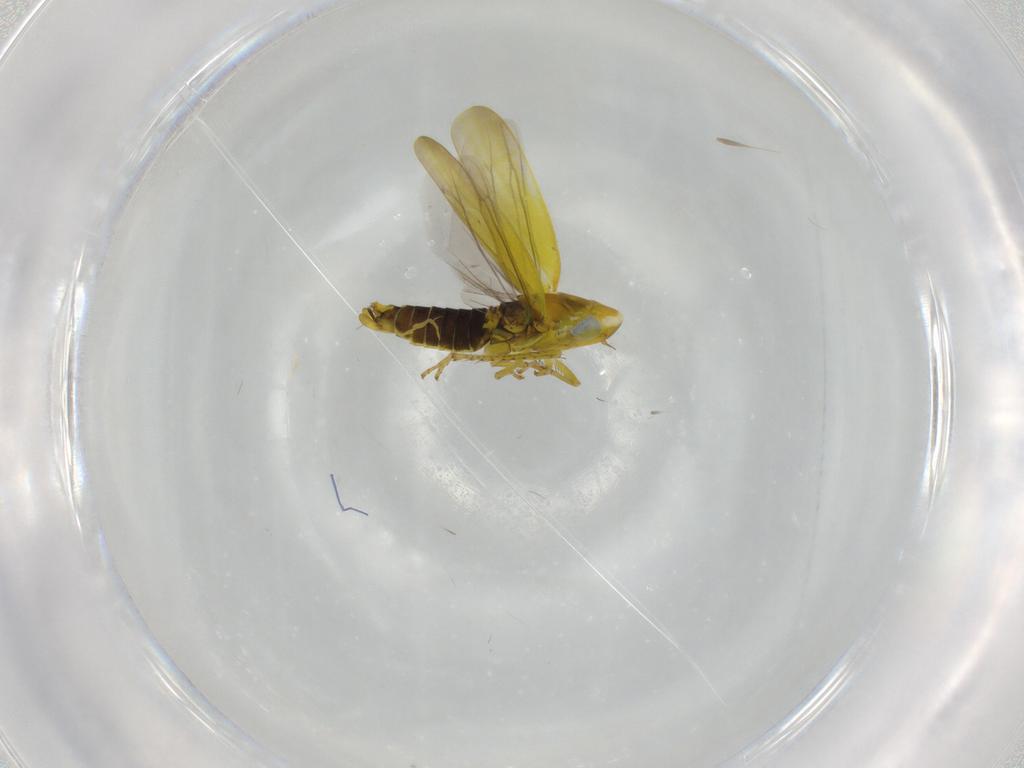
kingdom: Animalia
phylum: Arthropoda
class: Insecta
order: Hemiptera
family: Cicadellidae
